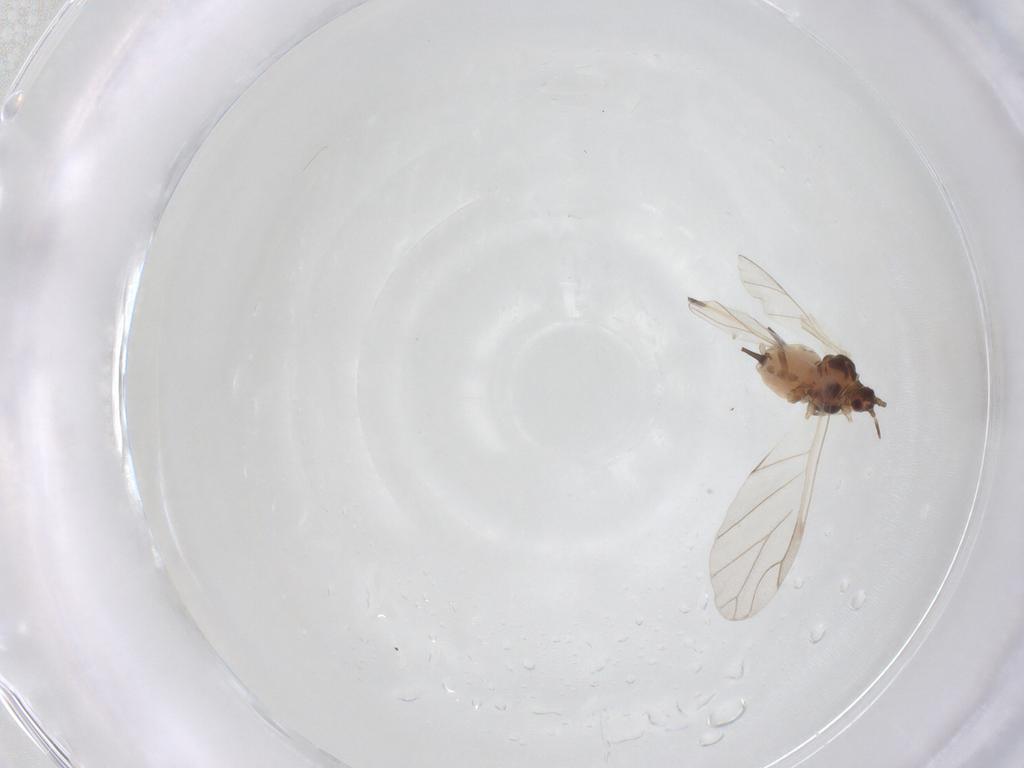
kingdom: Animalia
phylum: Arthropoda
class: Insecta
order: Hemiptera
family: Aphididae
